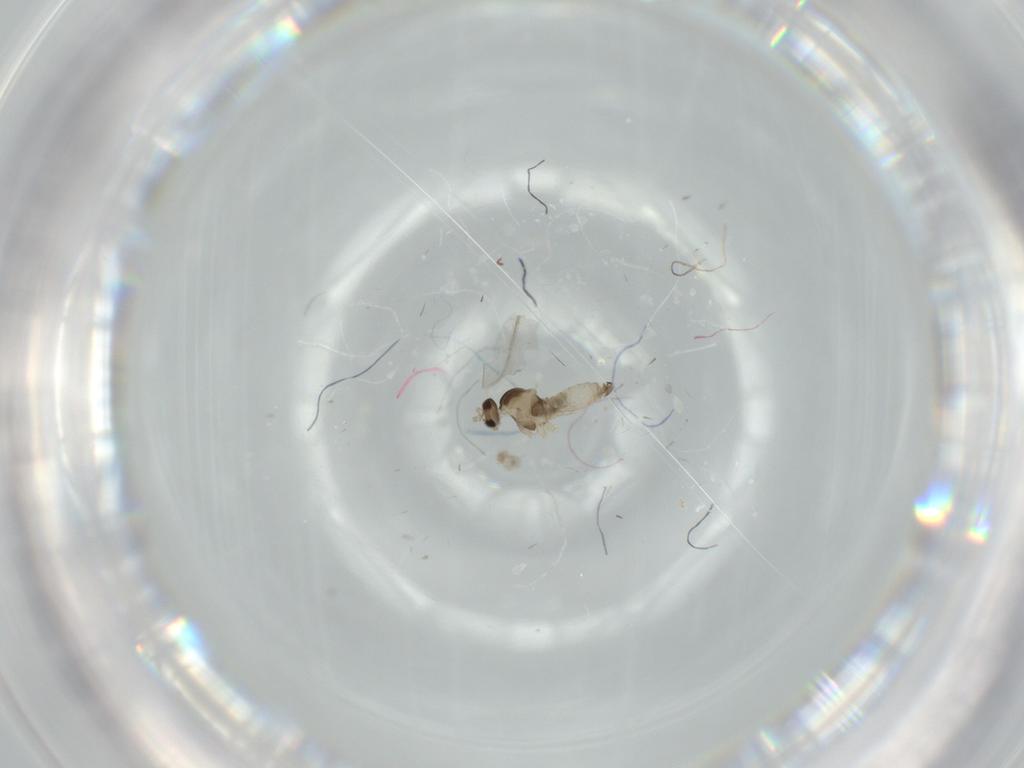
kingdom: Animalia
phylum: Arthropoda
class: Insecta
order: Diptera
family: Cecidomyiidae
